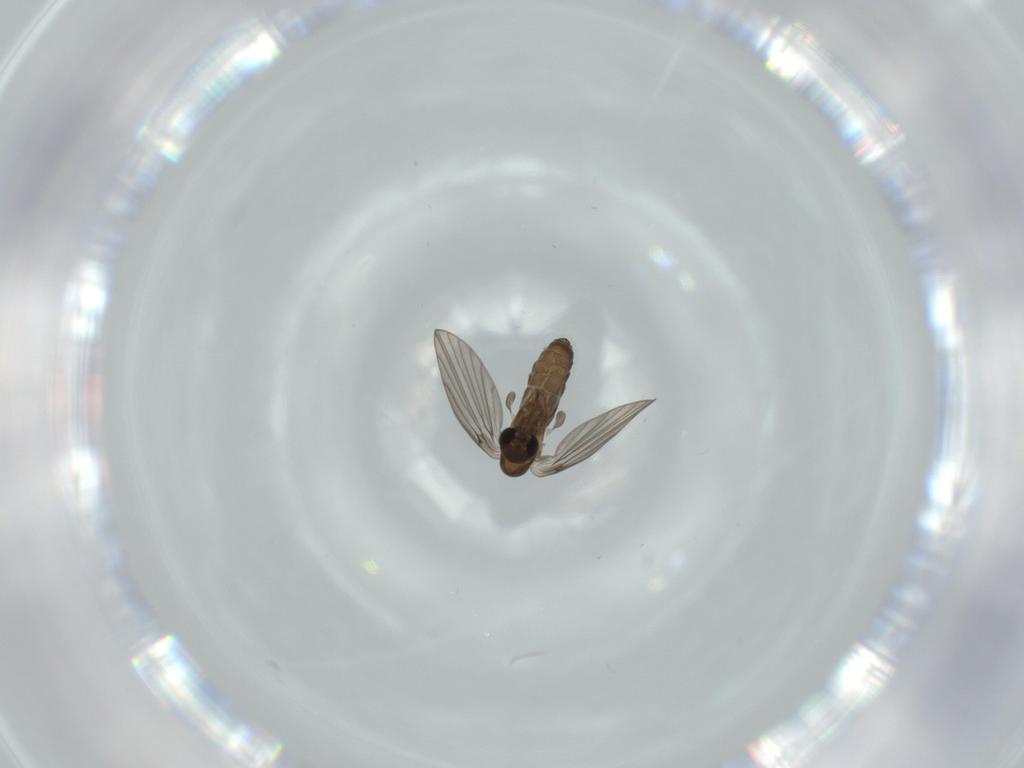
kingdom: Animalia
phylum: Arthropoda
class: Insecta
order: Diptera
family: Psychodidae
